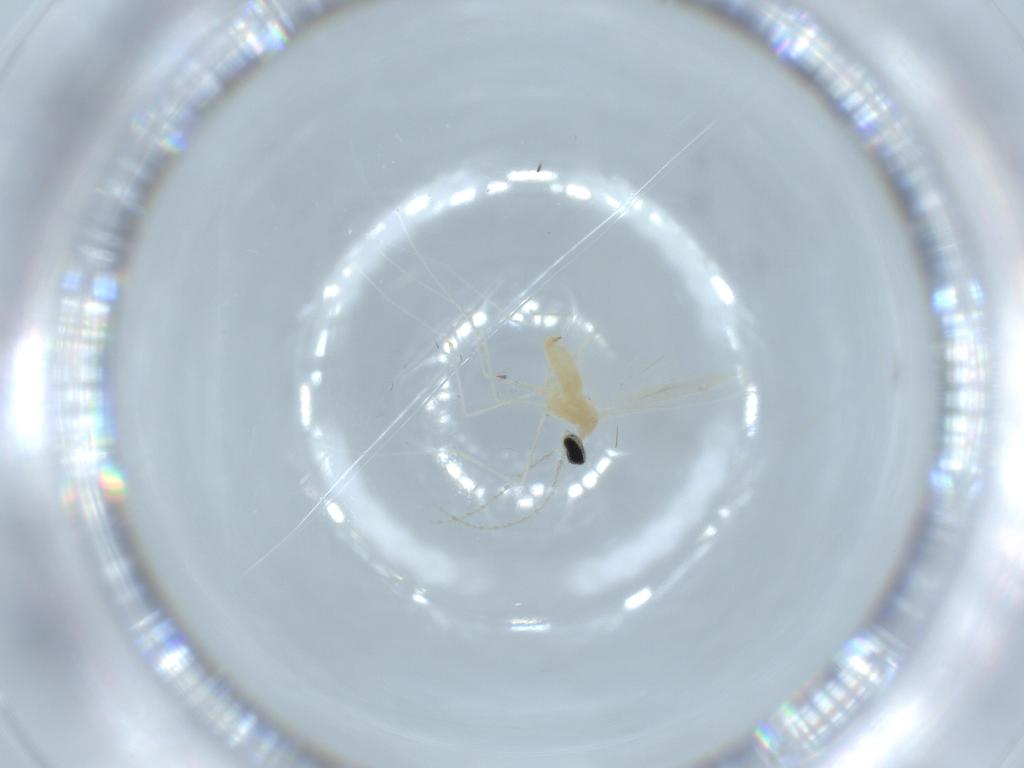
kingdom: Animalia
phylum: Arthropoda
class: Insecta
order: Diptera
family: Cecidomyiidae
